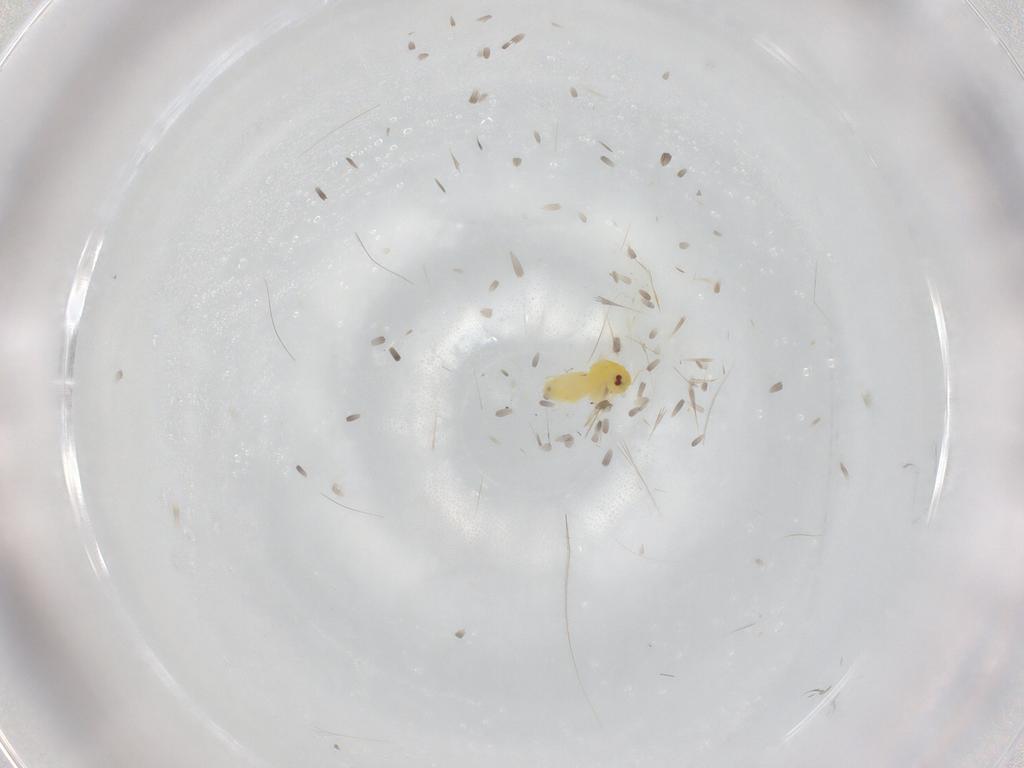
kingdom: Animalia
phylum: Arthropoda
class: Insecta
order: Hemiptera
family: Aleyrodidae
